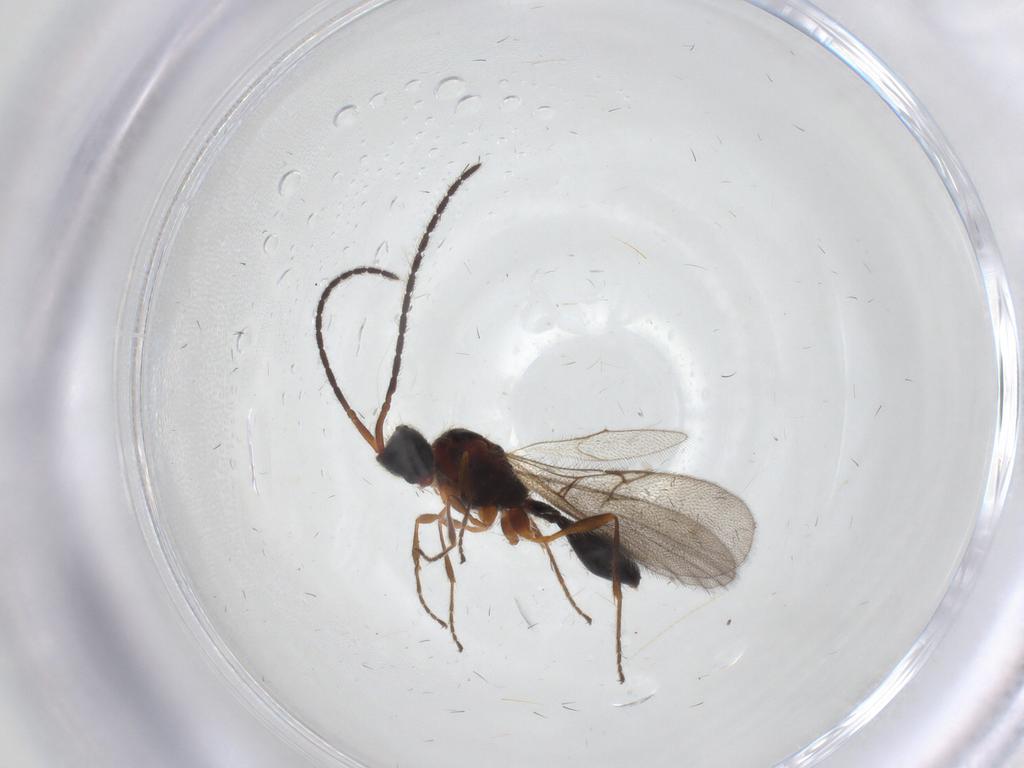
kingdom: Animalia
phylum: Arthropoda
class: Insecta
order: Hymenoptera
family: Diapriidae
